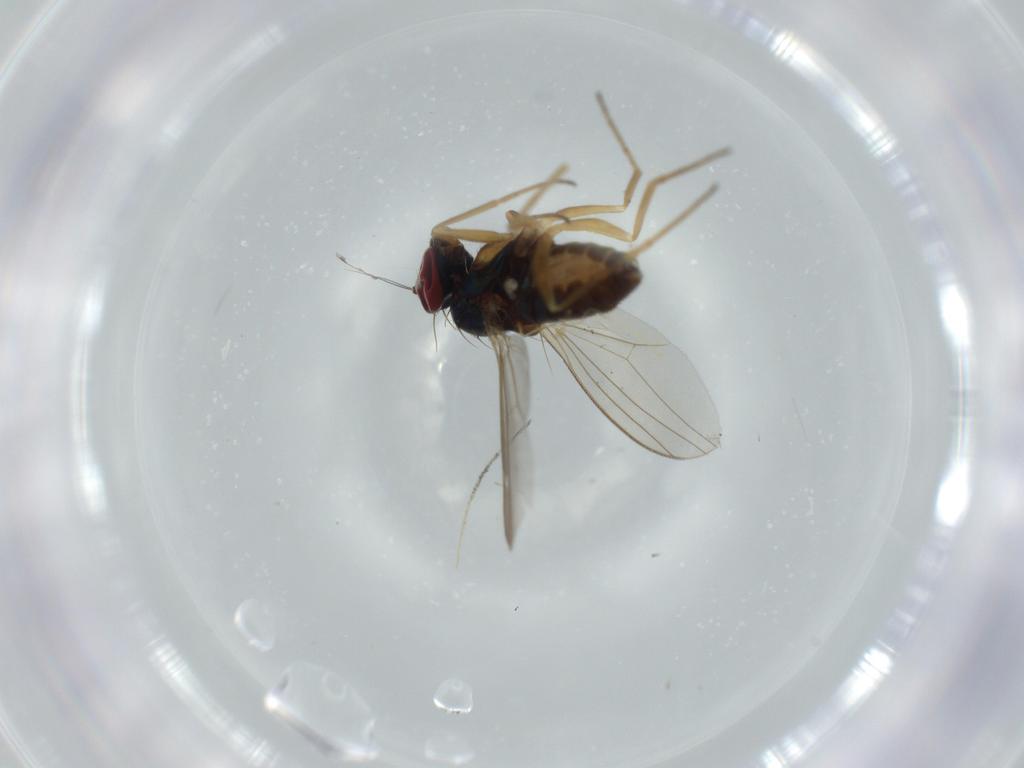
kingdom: Animalia
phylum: Arthropoda
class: Insecta
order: Diptera
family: Dolichopodidae
